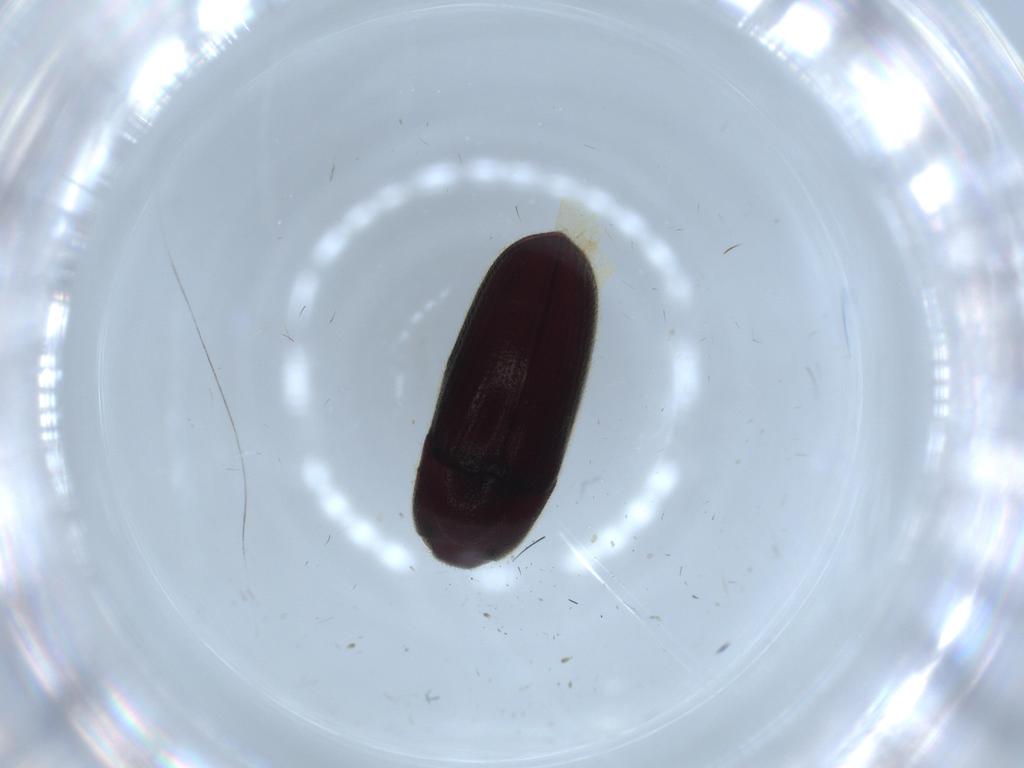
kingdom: Animalia
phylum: Arthropoda
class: Insecta
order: Coleoptera
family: Throscidae
